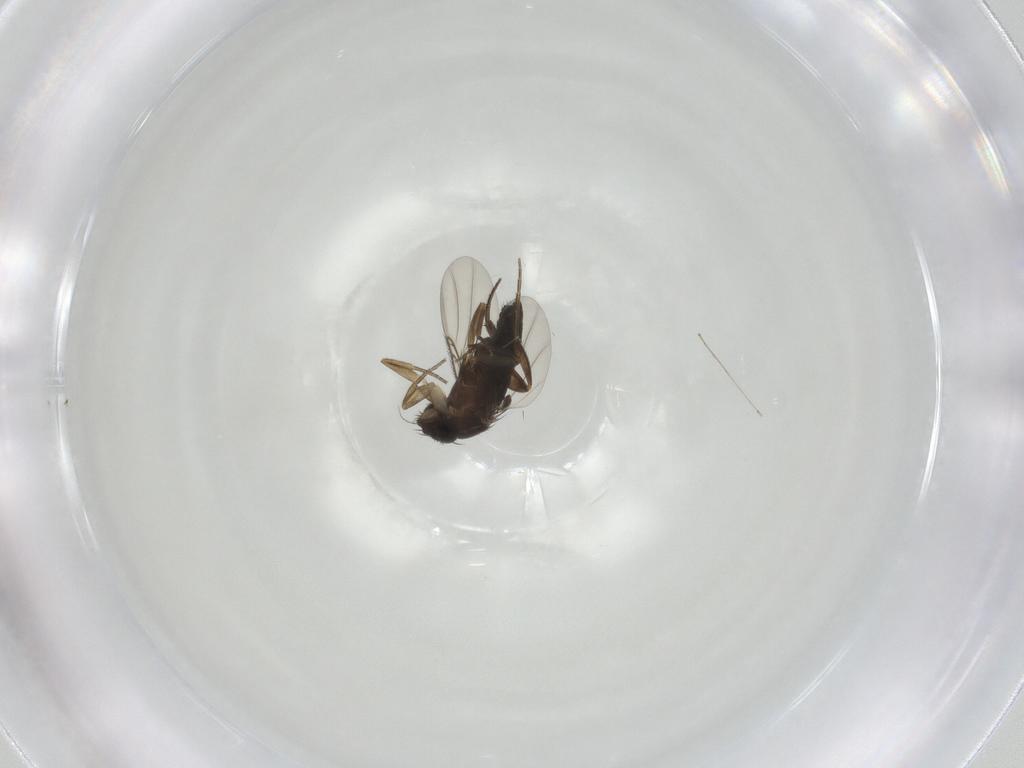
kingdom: Animalia
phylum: Arthropoda
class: Insecta
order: Diptera
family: Phoridae
